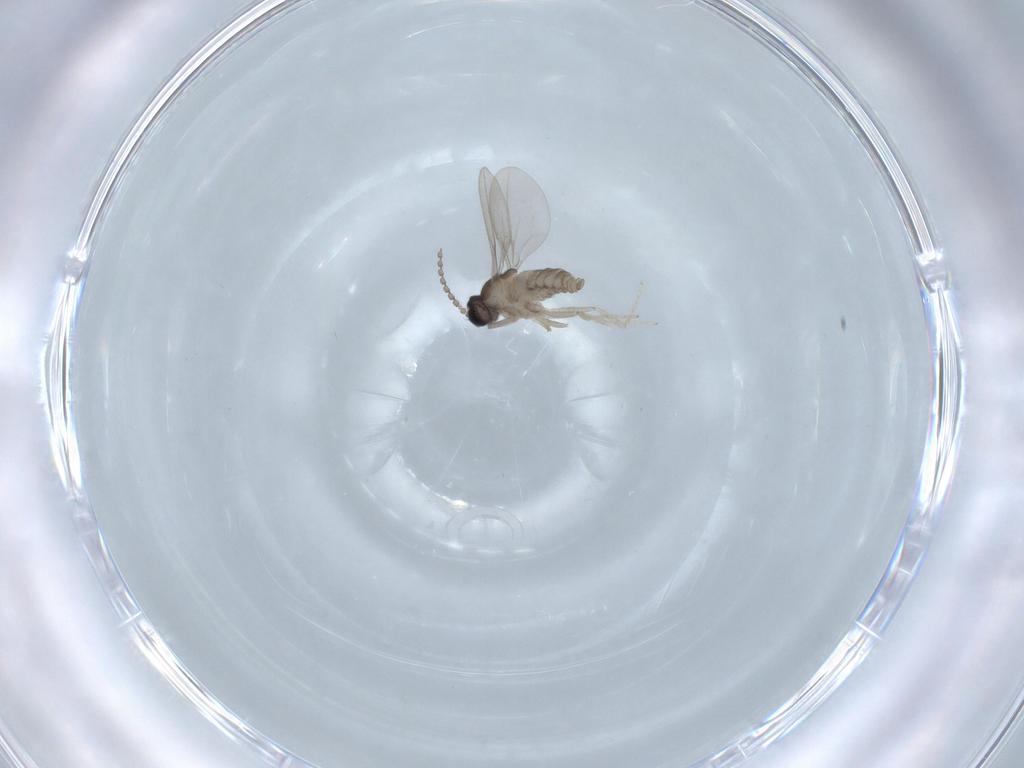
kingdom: Animalia
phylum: Arthropoda
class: Insecta
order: Diptera
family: Cecidomyiidae
